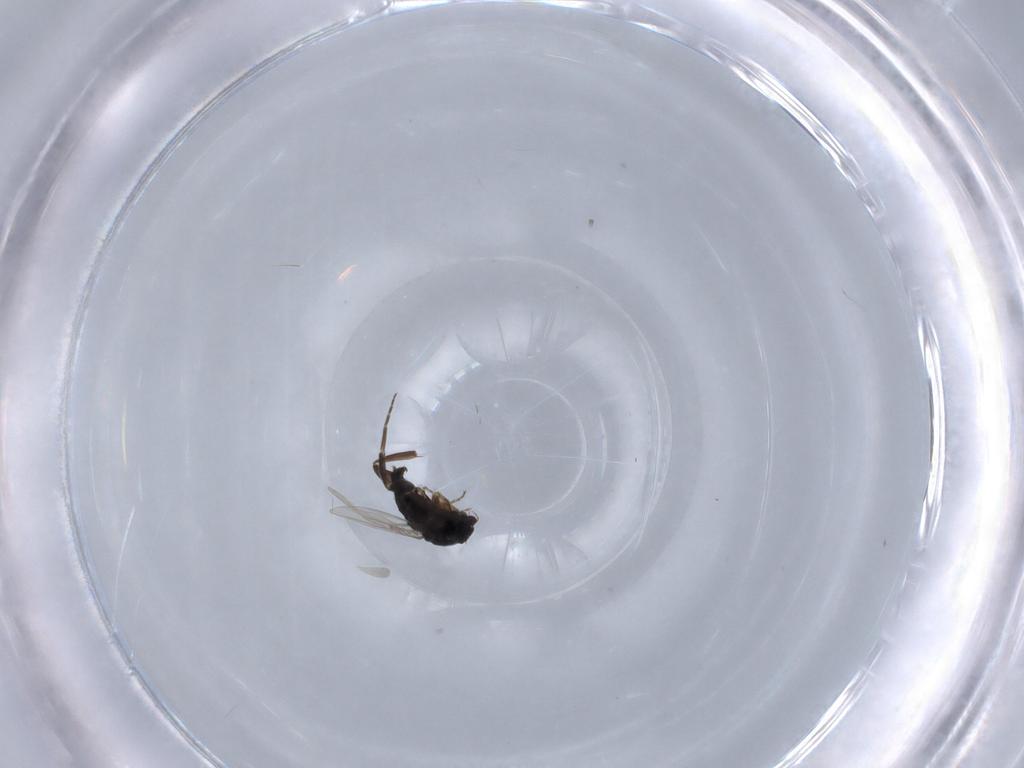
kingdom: Animalia
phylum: Arthropoda
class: Insecta
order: Diptera
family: Phoridae
